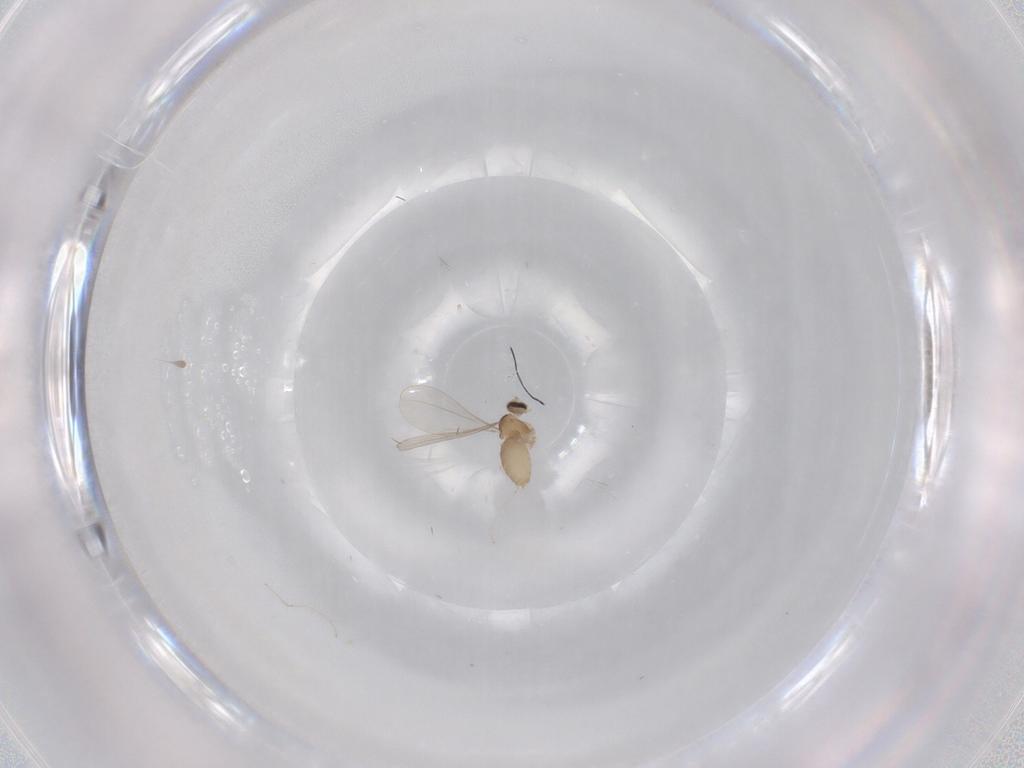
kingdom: Animalia
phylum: Arthropoda
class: Insecta
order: Diptera
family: Cecidomyiidae
